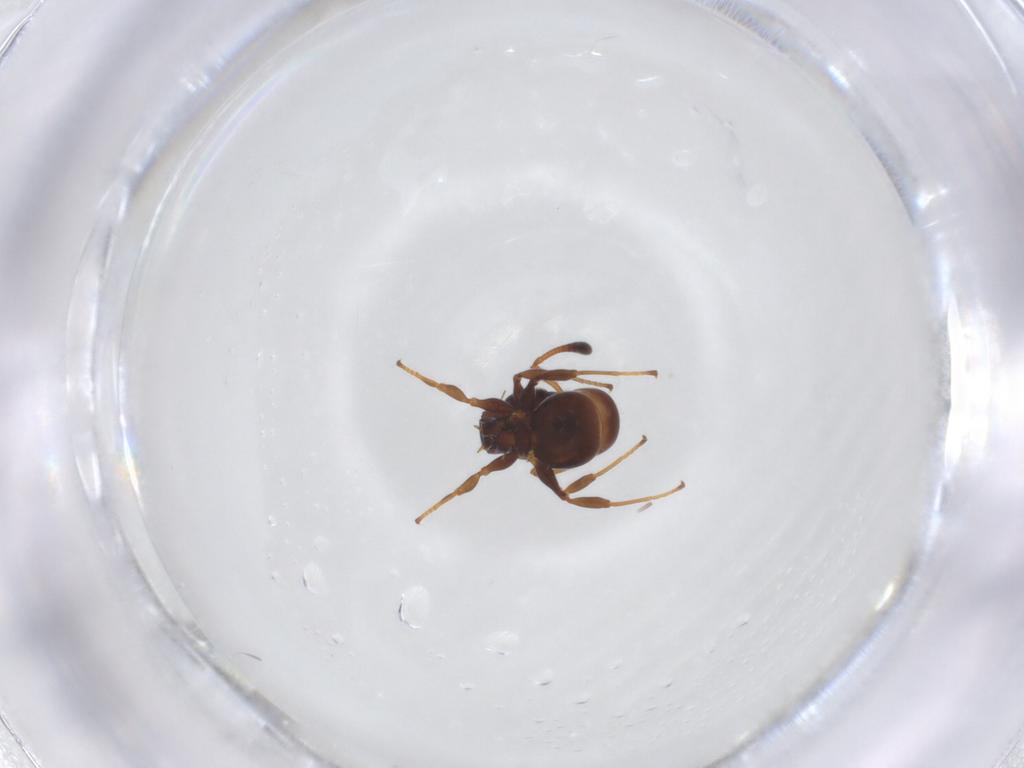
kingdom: Animalia
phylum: Arthropoda
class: Insecta
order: Hymenoptera
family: Formicidae
